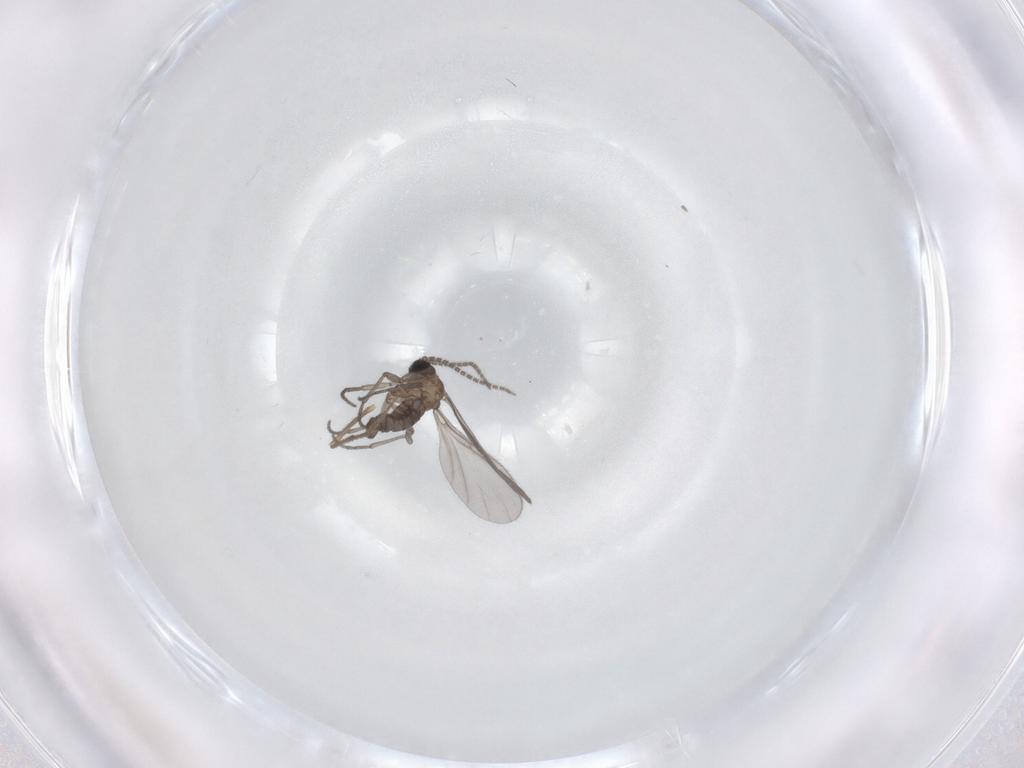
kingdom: Animalia
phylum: Arthropoda
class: Insecta
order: Diptera
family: Sciaridae
